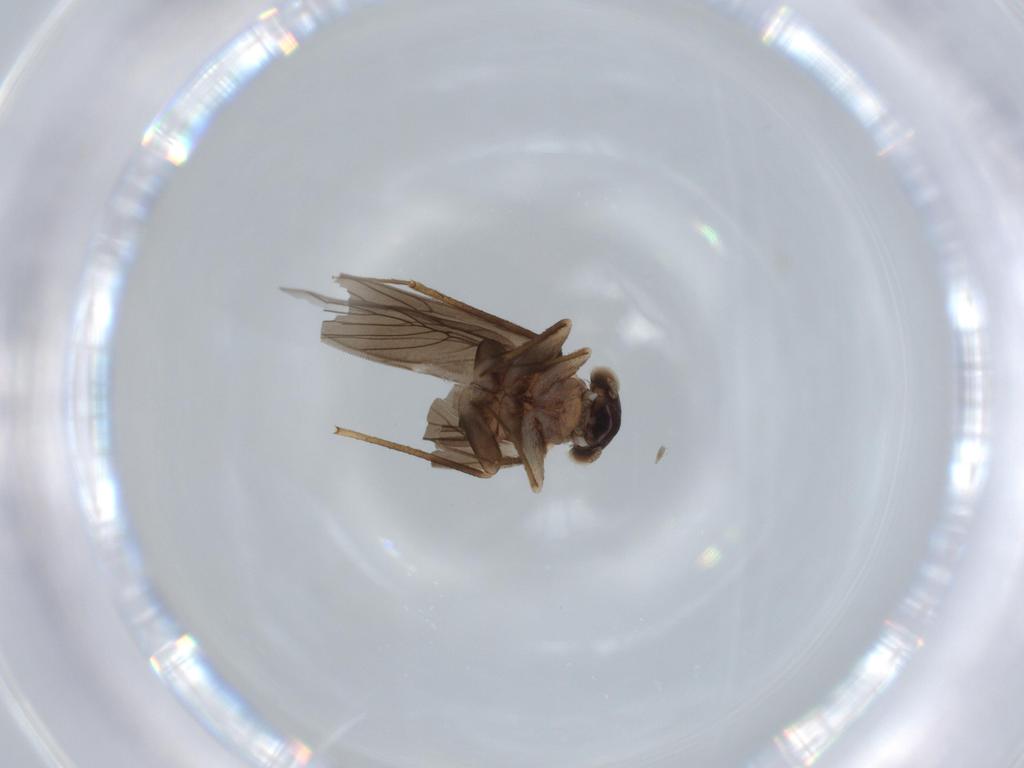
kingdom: Animalia
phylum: Arthropoda
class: Insecta
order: Psocodea
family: Lepidopsocidae
